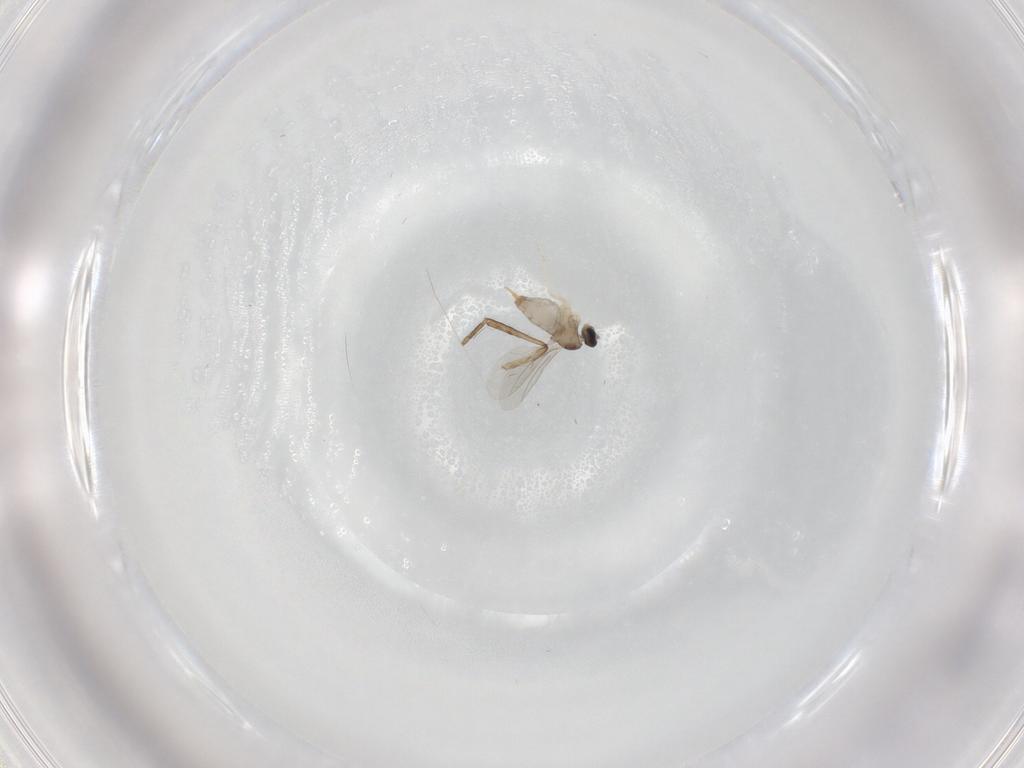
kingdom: Animalia
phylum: Arthropoda
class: Insecta
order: Diptera
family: Cecidomyiidae
